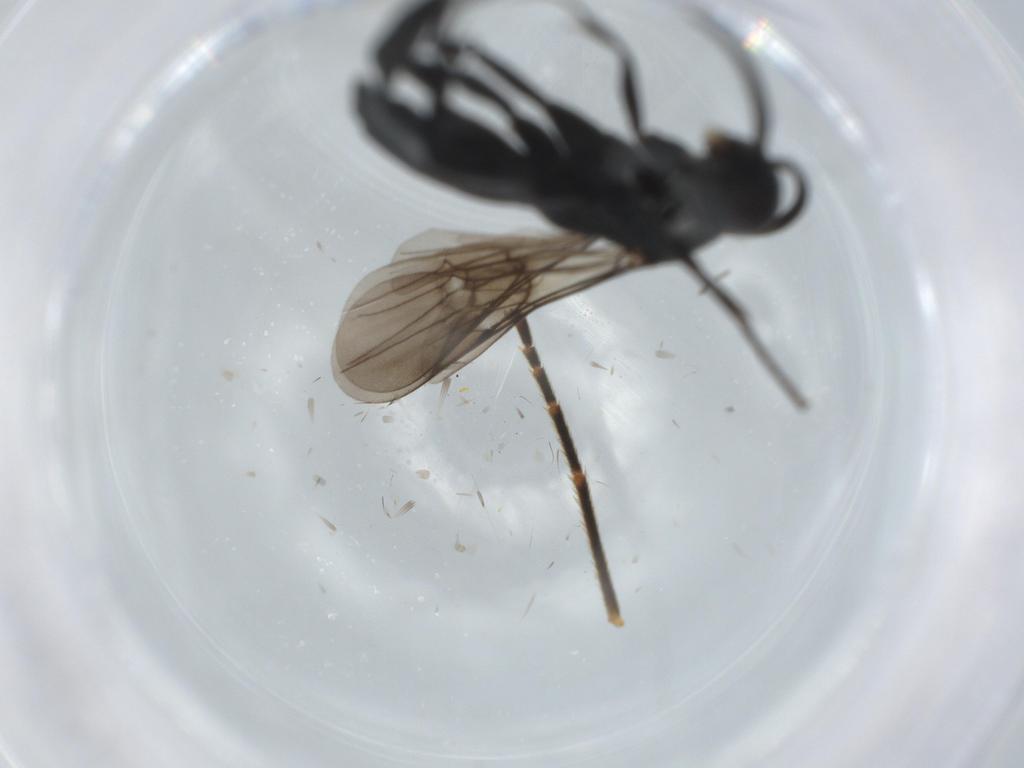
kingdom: Animalia
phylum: Arthropoda
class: Insecta
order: Hymenoptera
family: Pompilidae
